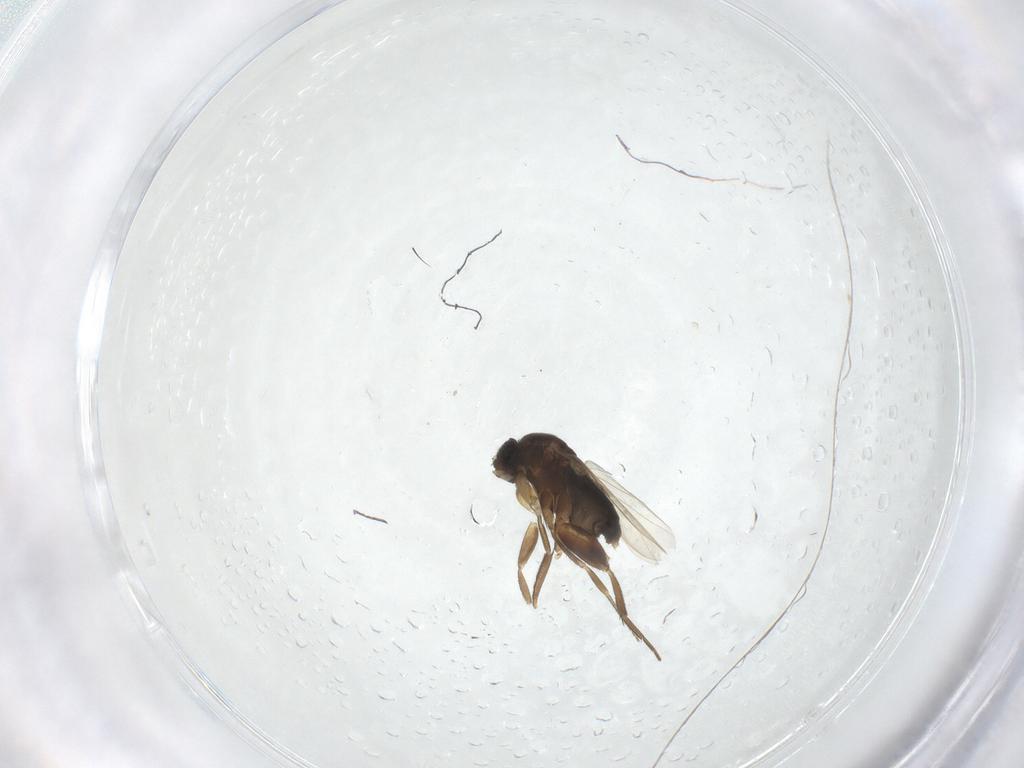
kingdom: Animalia
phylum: Arthropoda
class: Insecta
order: Diptera
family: Phoridae
